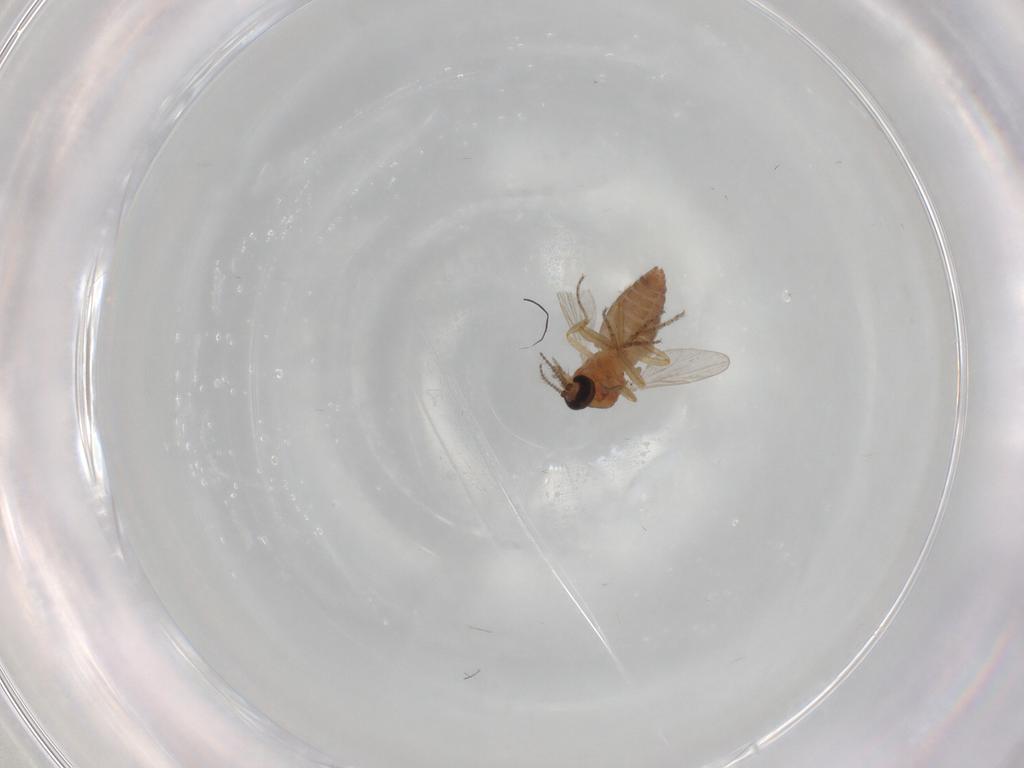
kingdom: Animalia
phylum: Arthropoda
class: Insecta
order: Diptera
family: Ceratopogonidae
